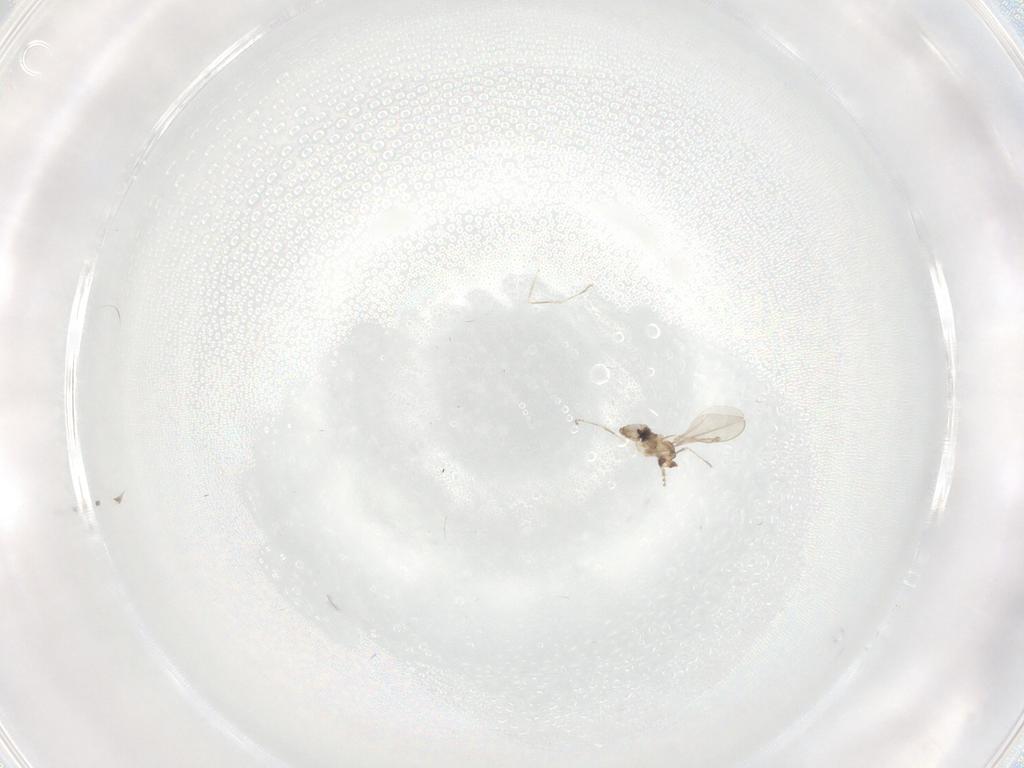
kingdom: Animalia
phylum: Arthropoda
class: Insecta
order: Diptera
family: Cecidomyiidae
